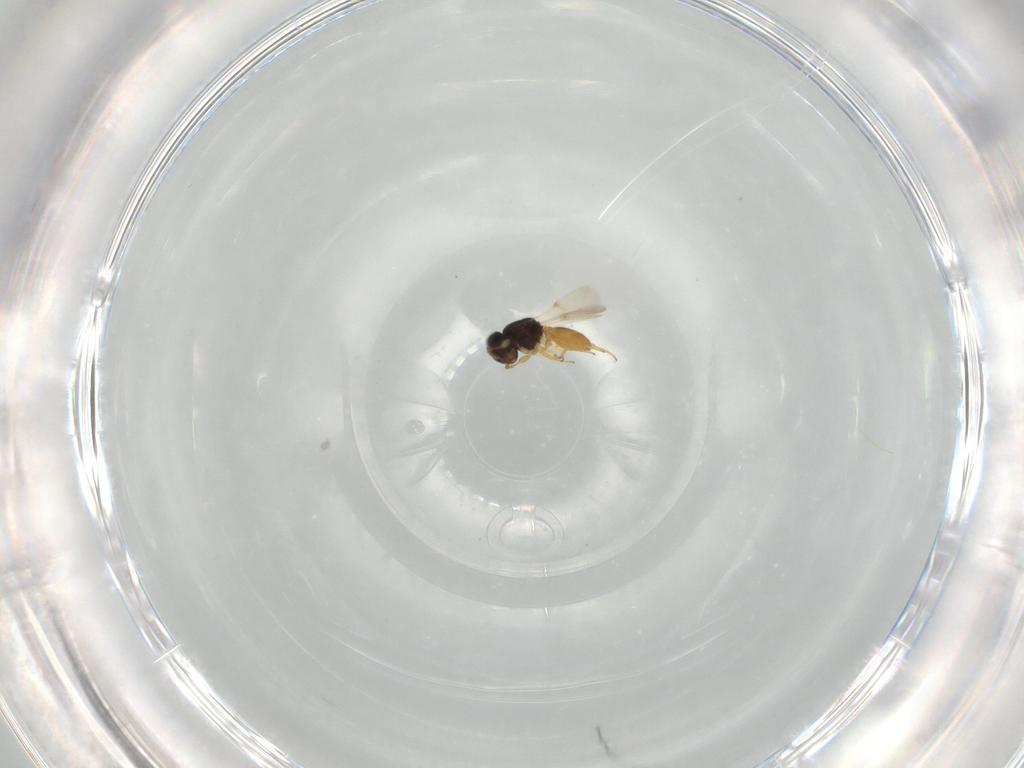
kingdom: Animalia
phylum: Arthropoda
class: Insecta
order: Hymenoptera
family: Scelionidae
